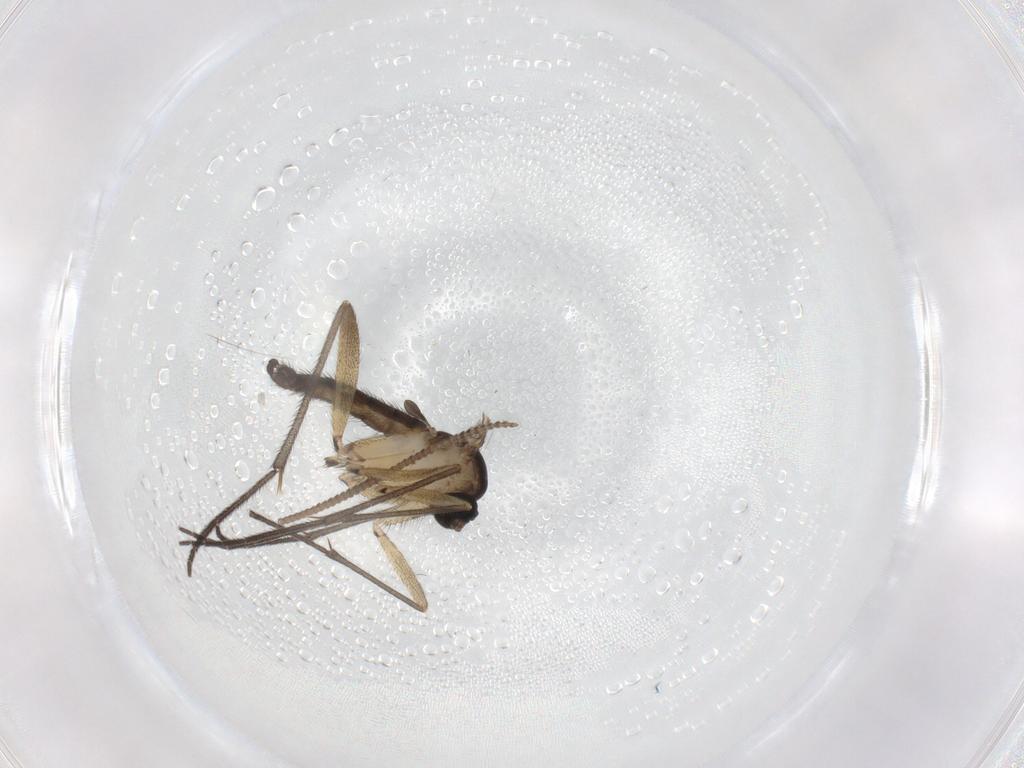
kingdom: Animalia
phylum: Arthropoda
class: Insecta
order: Diptera
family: Sciaridae
